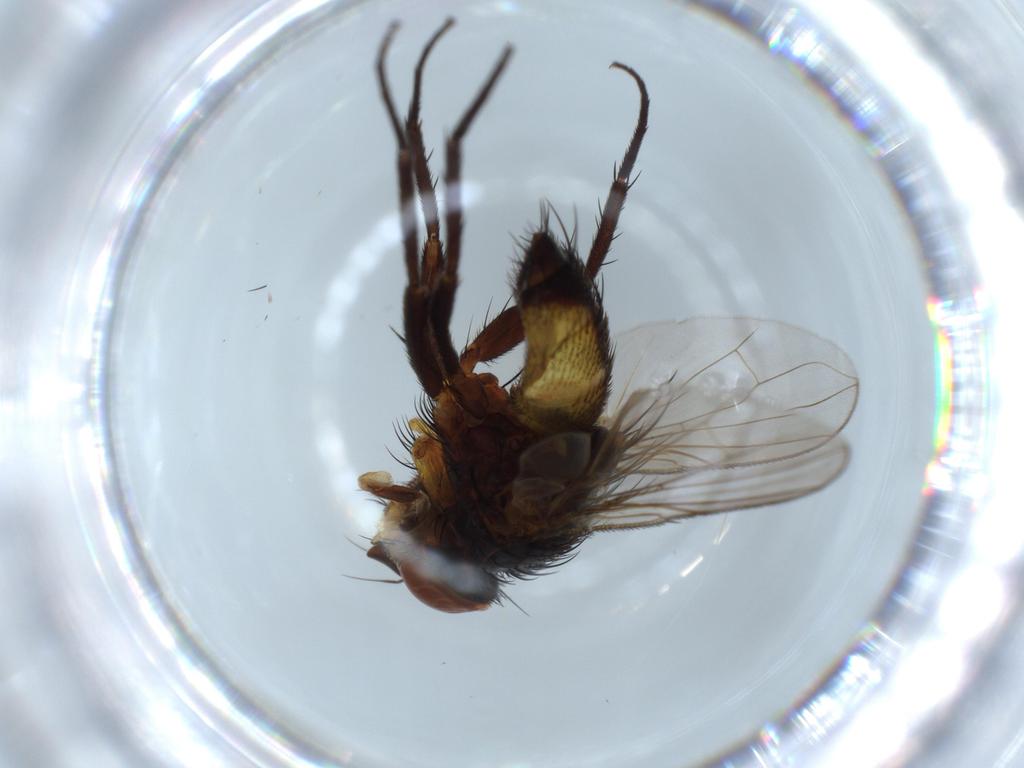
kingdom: Animalia
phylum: Arthropoda
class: Insecta
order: Diptera
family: Tachinidae
